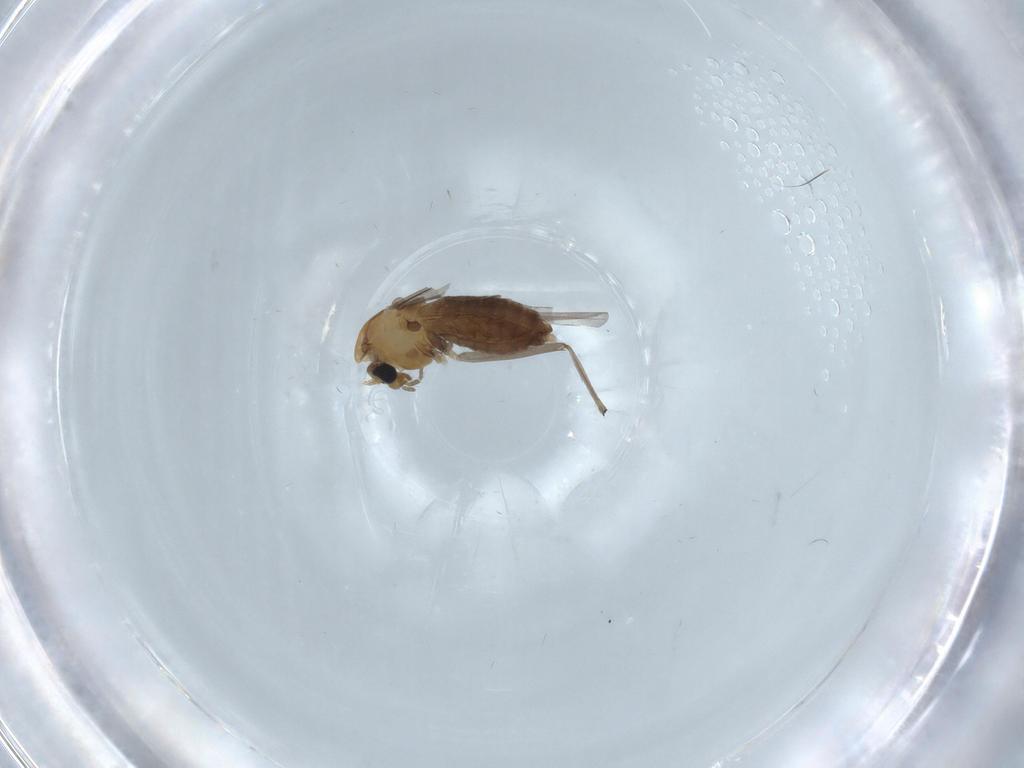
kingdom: Animalia
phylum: Arthropoda
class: Insecta
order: Diptera
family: Chironomidae
